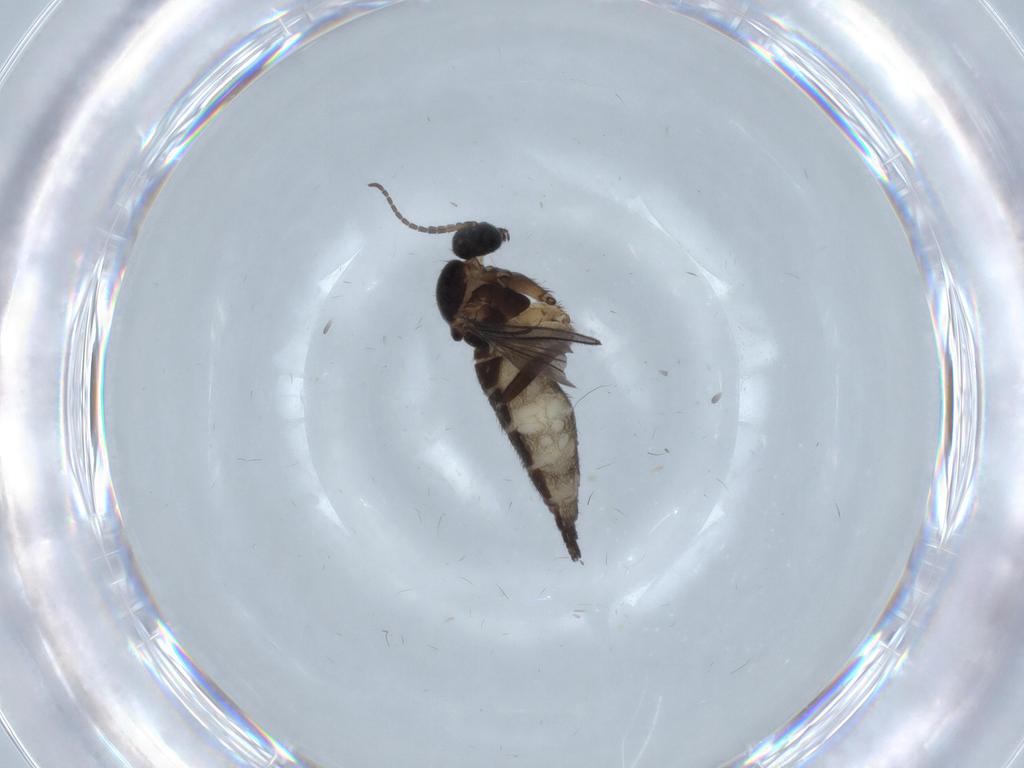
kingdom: Animalia
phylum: Arthropoda
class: Insecta
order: Diptera
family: Sciaridae
